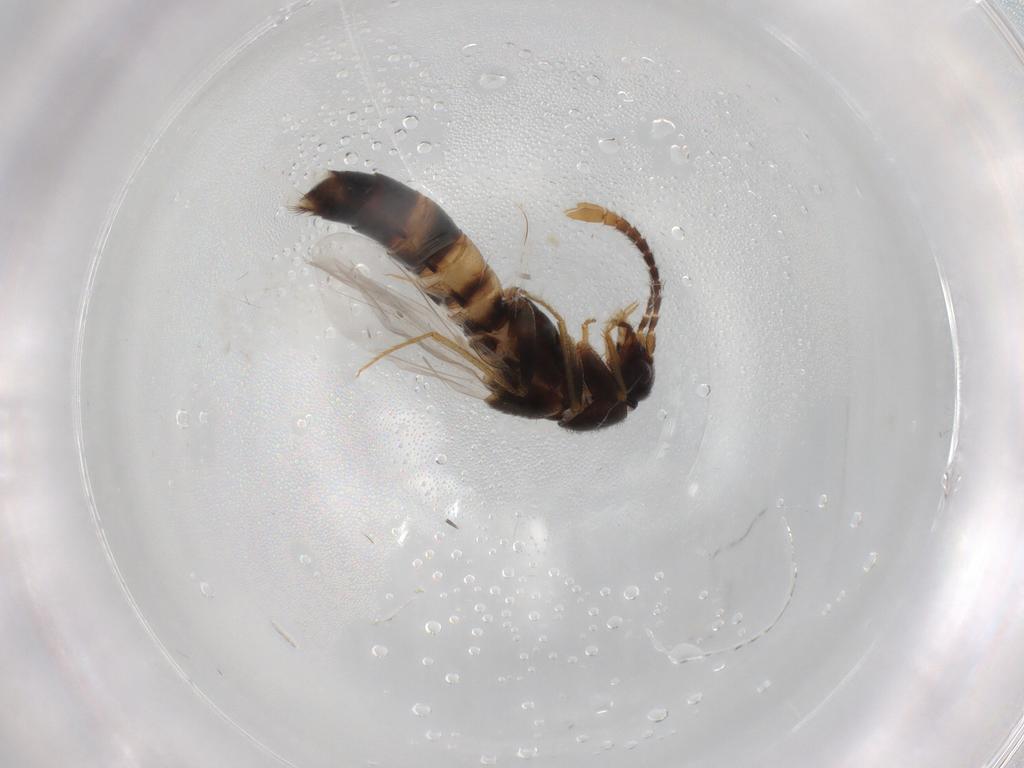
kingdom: Animalia
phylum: Arthropoda
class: Insecta
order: Coleoptera
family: Staphylinidae
